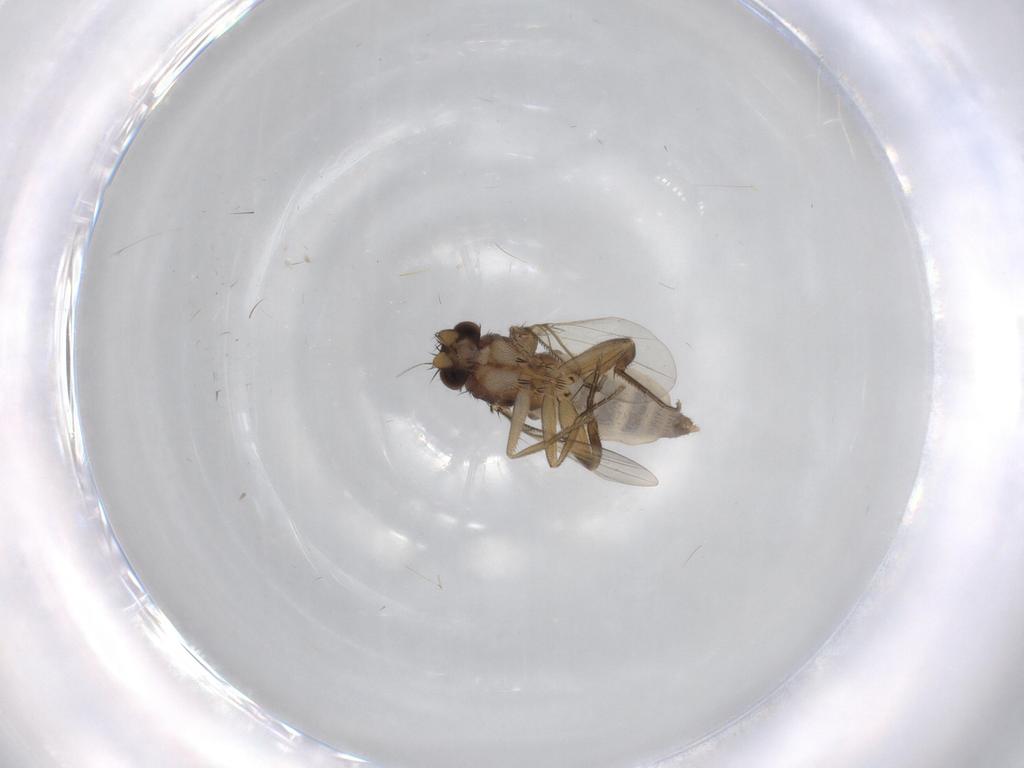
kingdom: Animalia
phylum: Arthropoda
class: Insecta
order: Diptera
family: Phoridae
